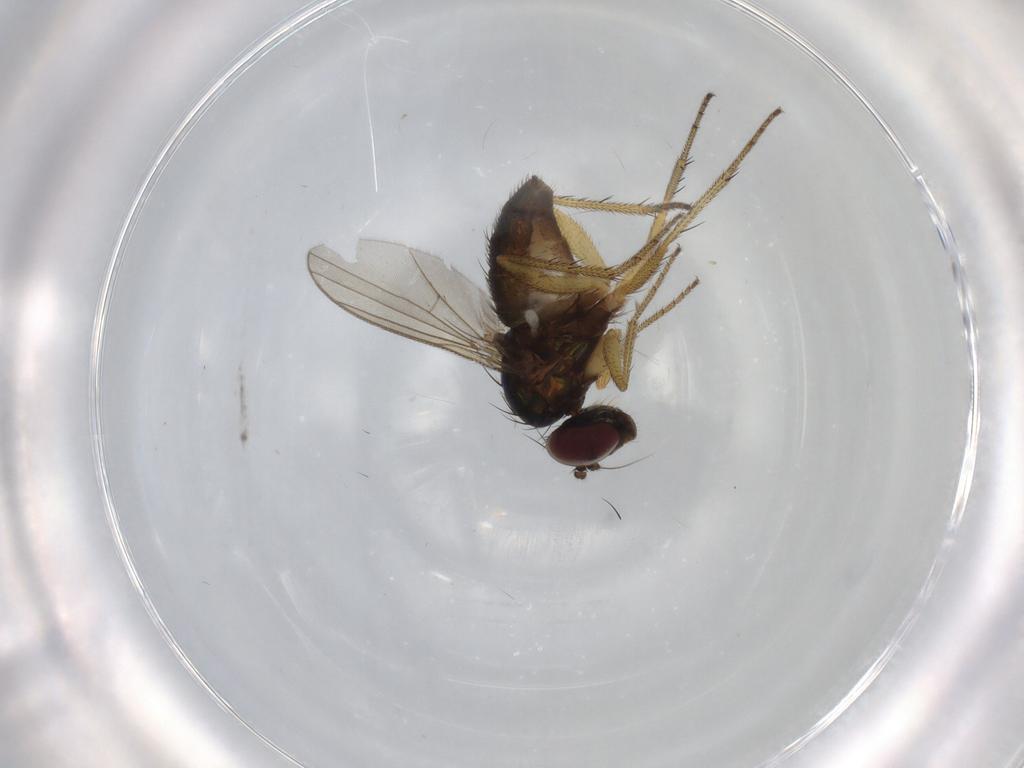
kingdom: Animalia
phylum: Arthropoda
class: Insecta
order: Diptera
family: Dolichopodidae
